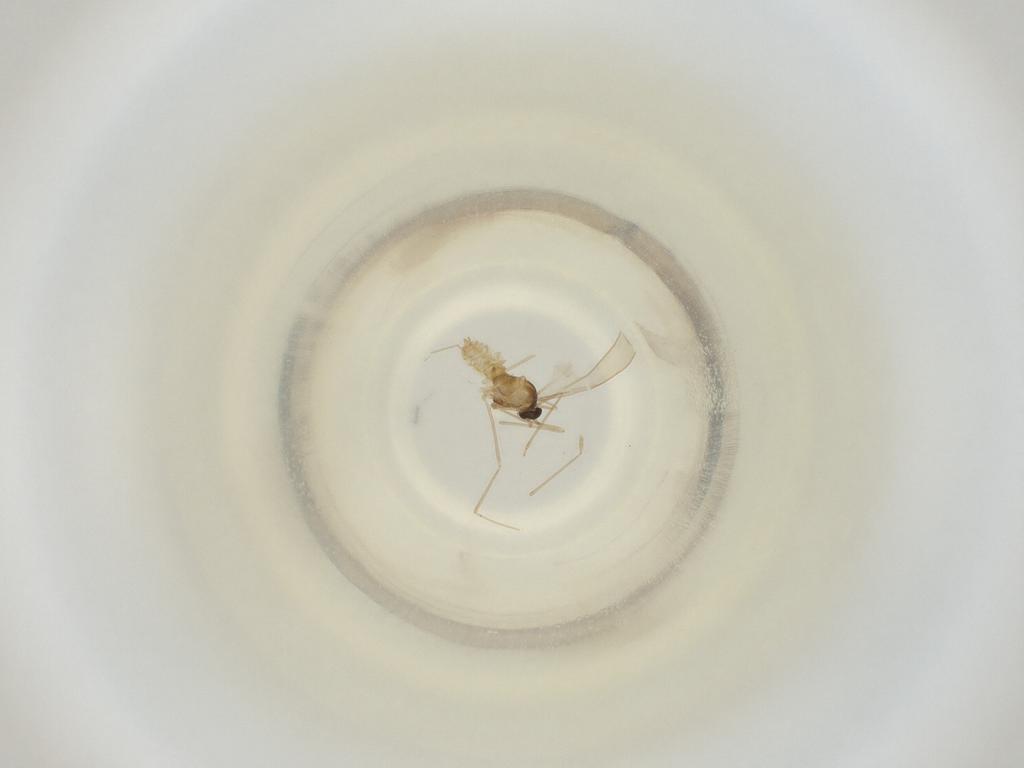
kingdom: Animalia
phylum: Arthropoda
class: Insecta
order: Diptera
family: Cecidomyiidae
